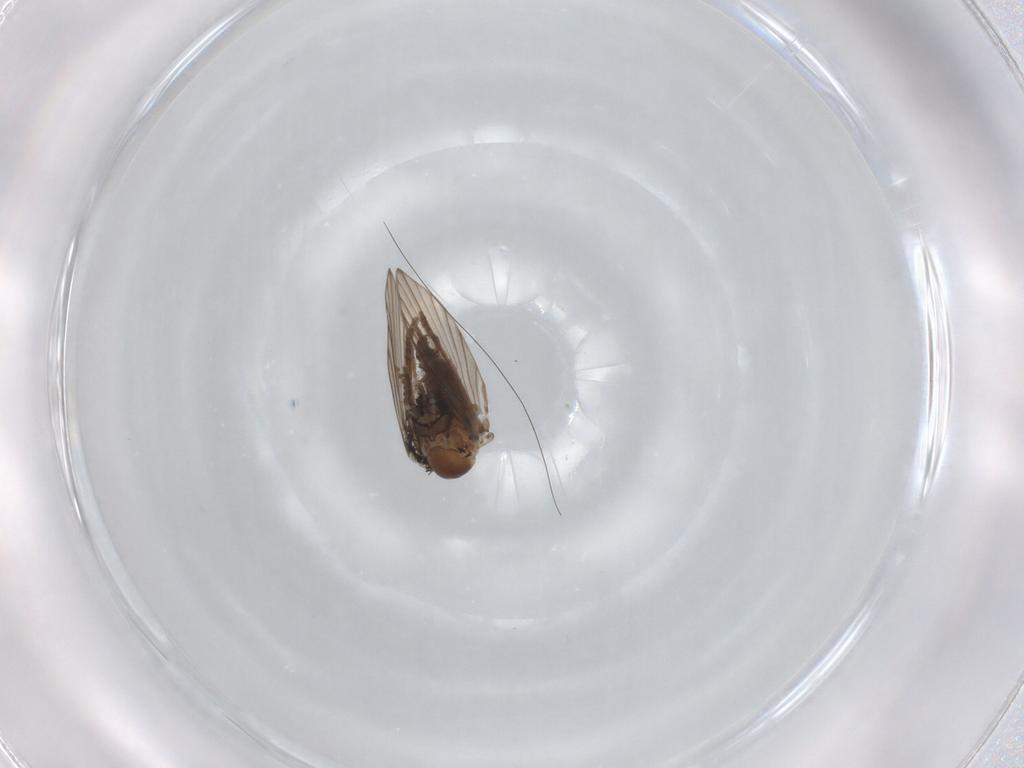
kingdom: Animalia
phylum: Arthropoda
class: Insecta
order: Diptera
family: Psychodidae
